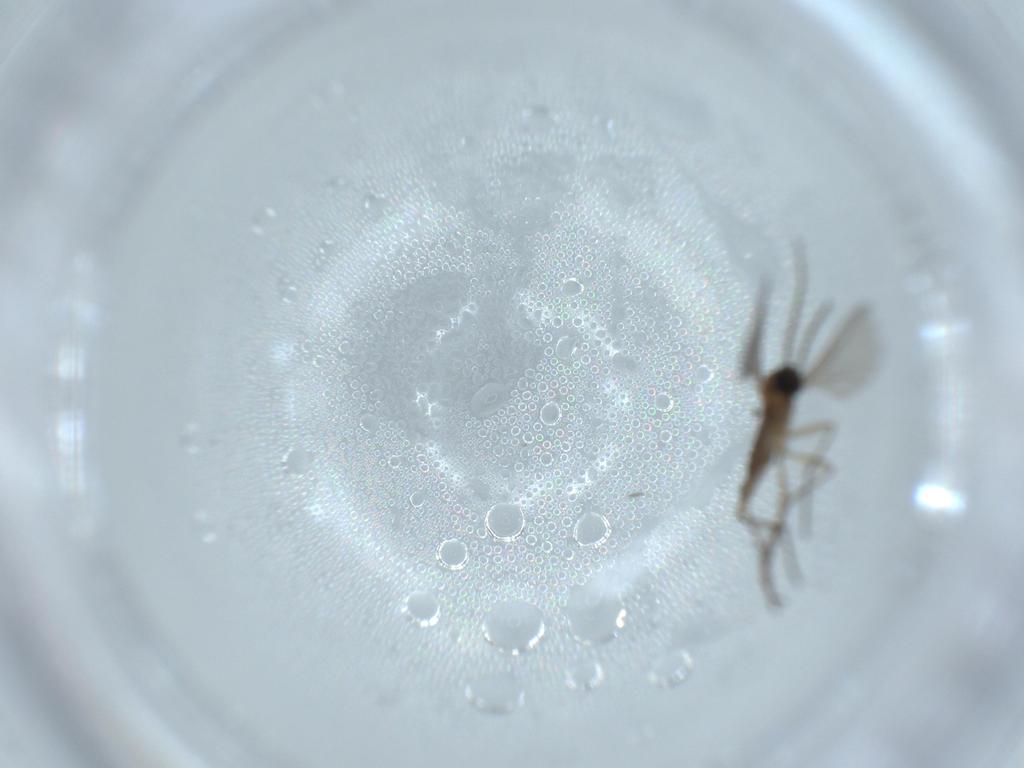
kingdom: Animalia
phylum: Arthropoda
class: Insecta
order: Diptera
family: Sciaridae
